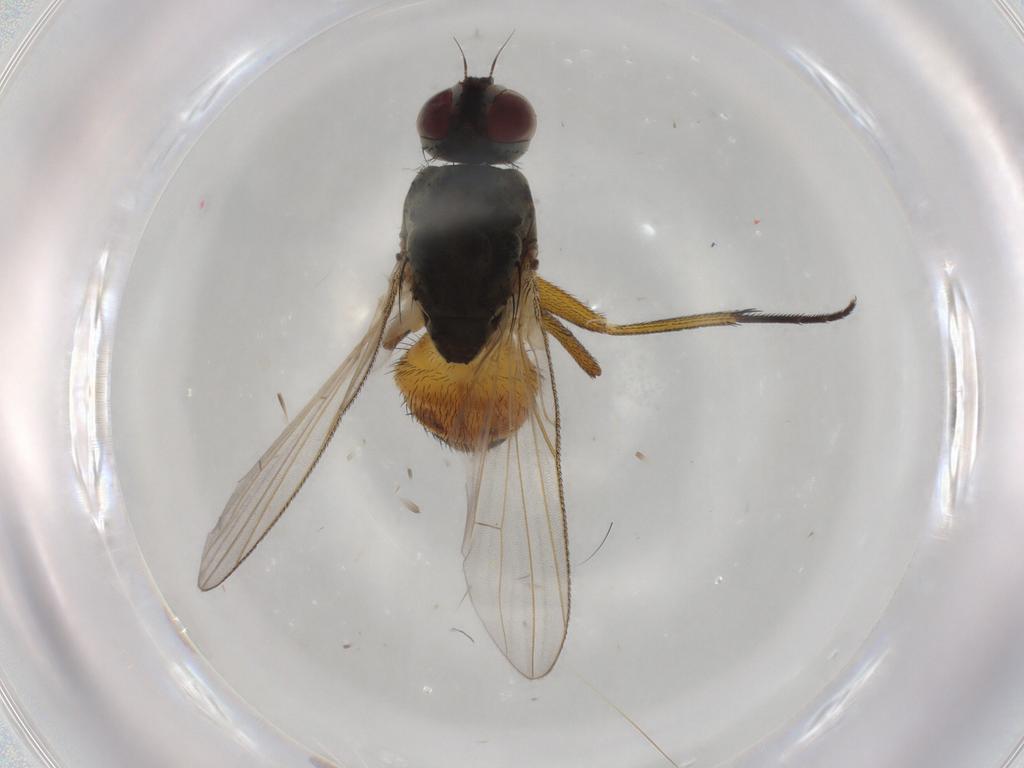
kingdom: Animalia
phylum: Arthropoda
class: Insecta
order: Diptera
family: Muscidae
